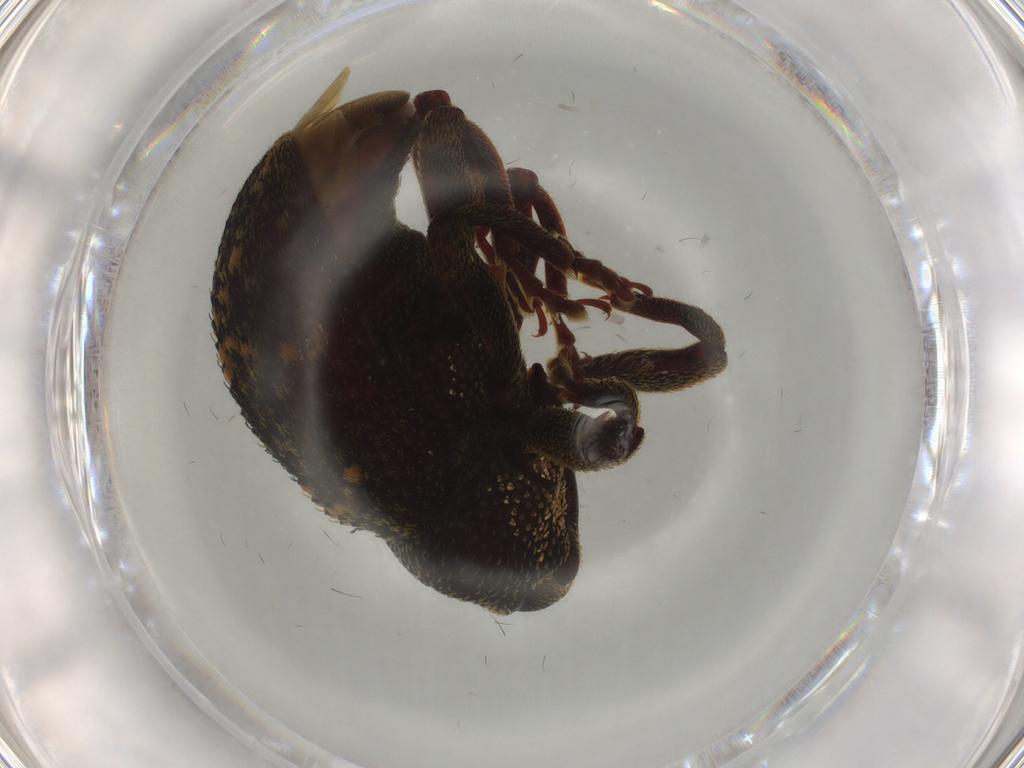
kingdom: Animalia
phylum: Arthropoda
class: Insecta
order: Coleoptera
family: Curculionidae
